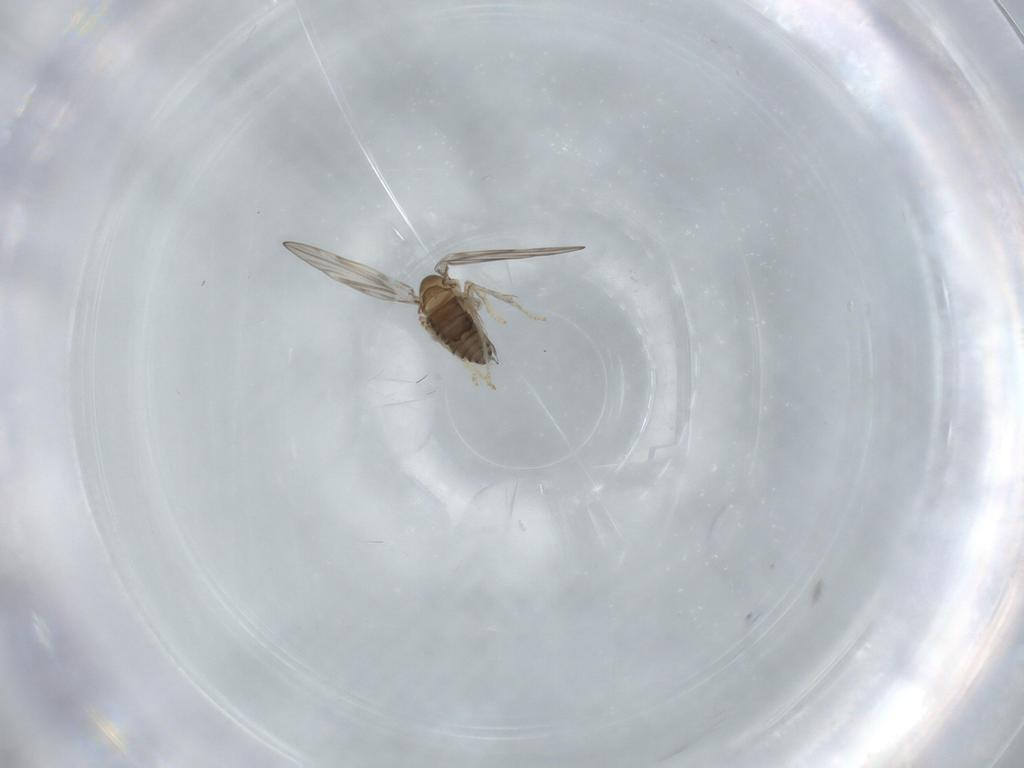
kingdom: Animalia
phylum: Arthropoda
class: Insecta
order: Diptera
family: Psychodidae
